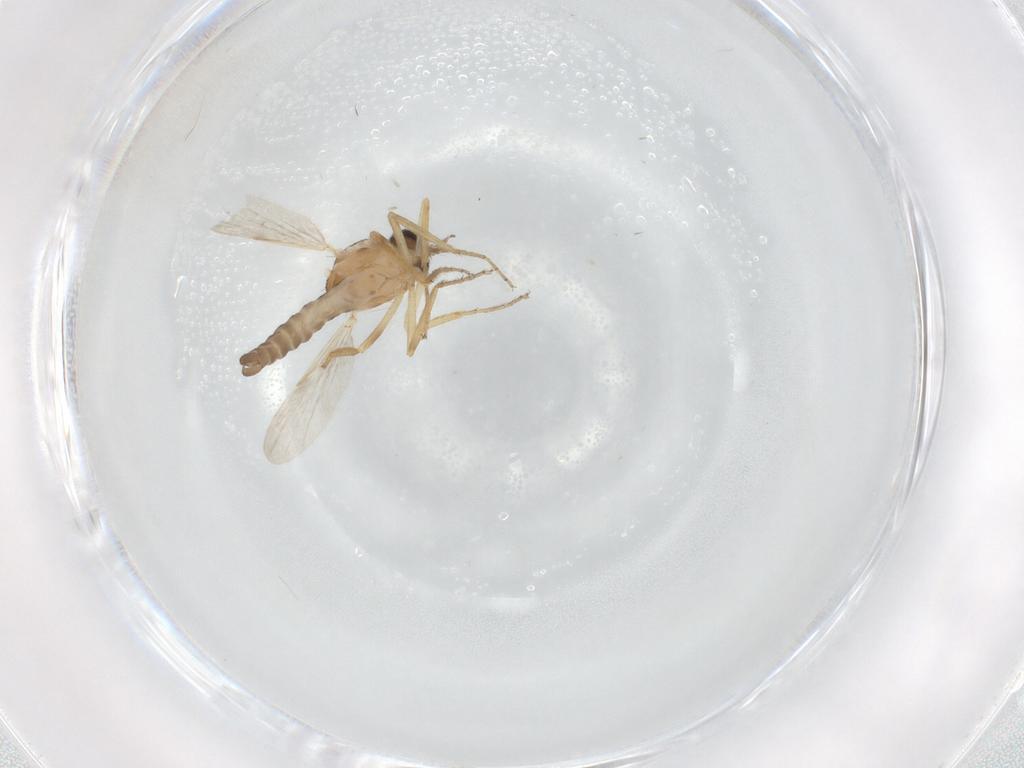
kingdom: Animalia
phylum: Arthropoda
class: Insecta
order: Diptera
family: Ceratopogonidae
